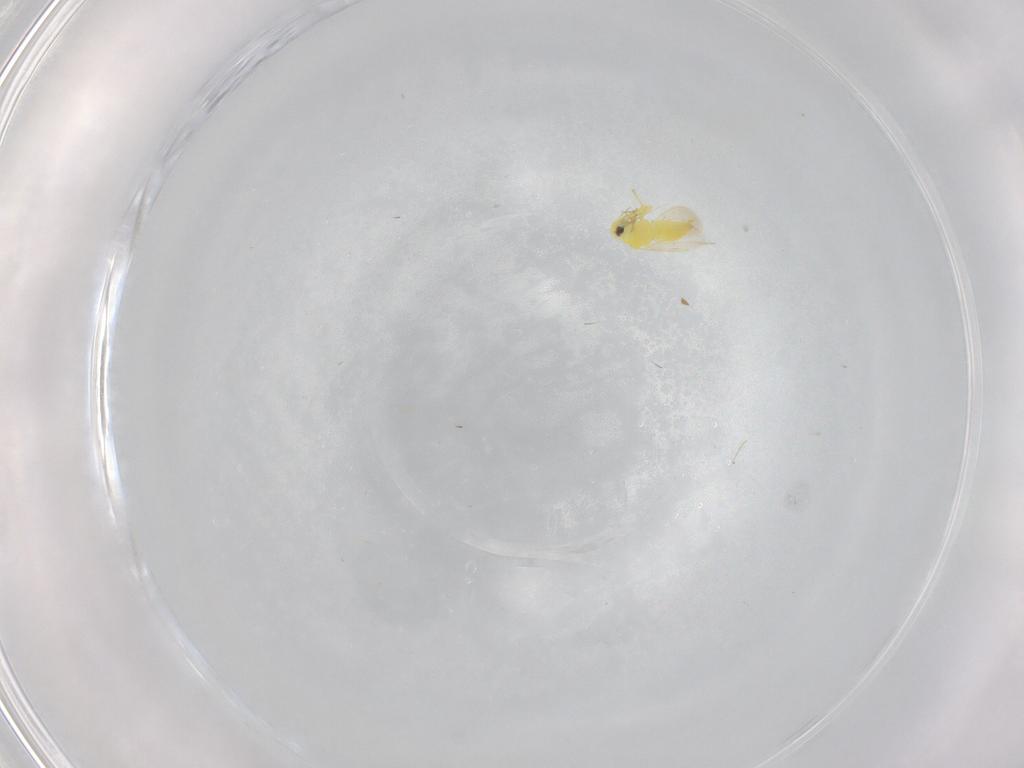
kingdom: Animalia
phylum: Arthropoda
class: Insecta
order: Hemiptera
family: Aleyrodidae
